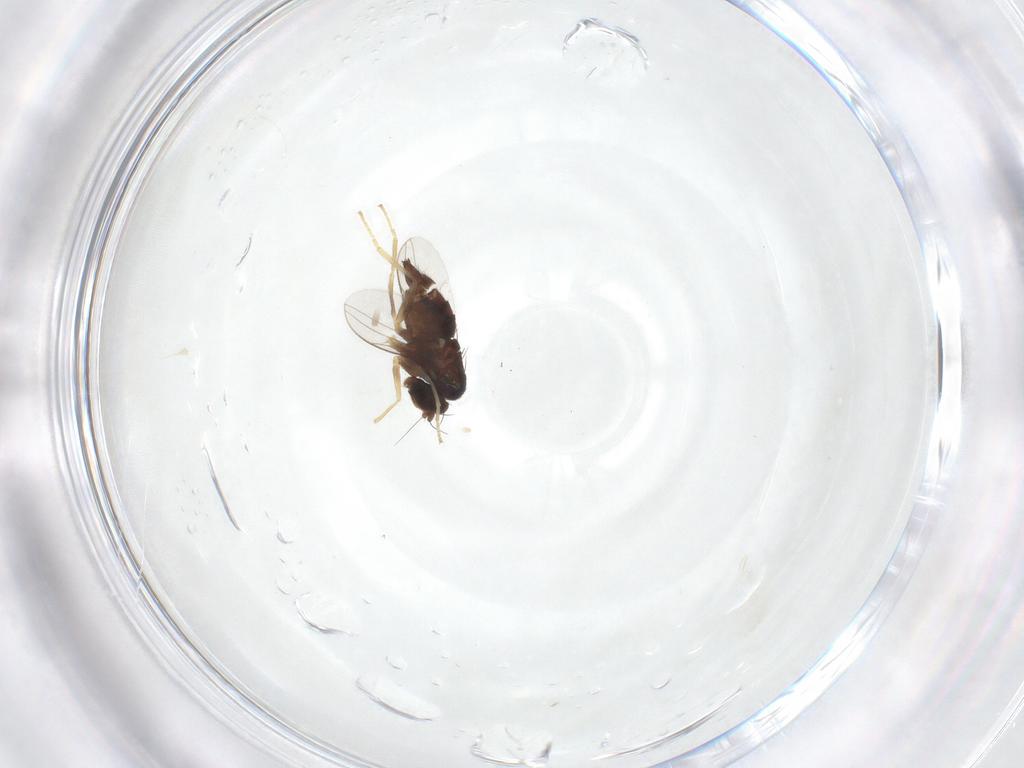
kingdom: Animalia
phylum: Arthropoda
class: Insecta
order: Diptera
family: Dolichopodidae
